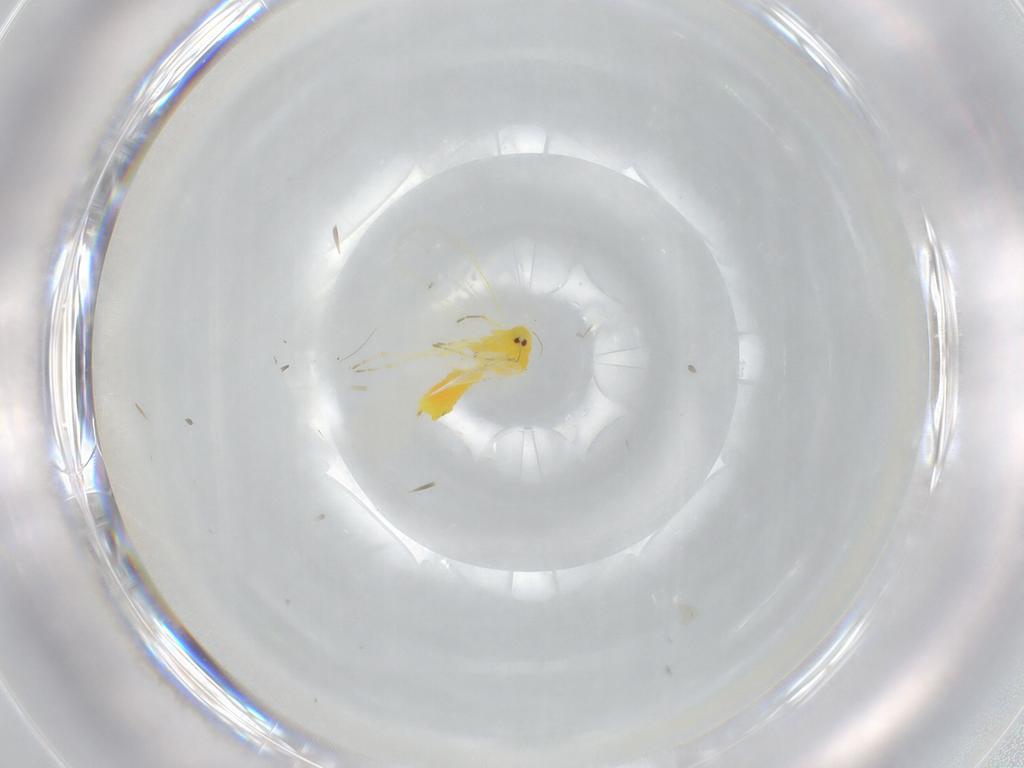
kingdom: Animalia
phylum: Arthropoda
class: Insecta
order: Hemiptera
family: Aleyrodidae
